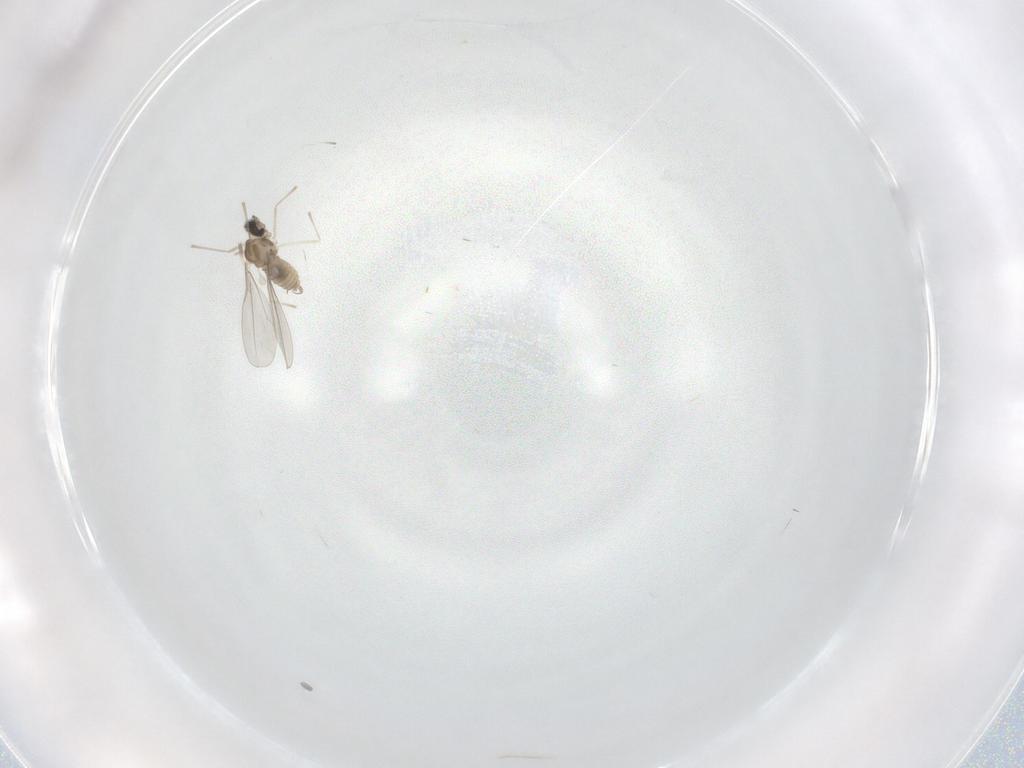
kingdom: Animalia
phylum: Arthropoda
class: Insecta
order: Diptera
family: Cecidomyiidae
